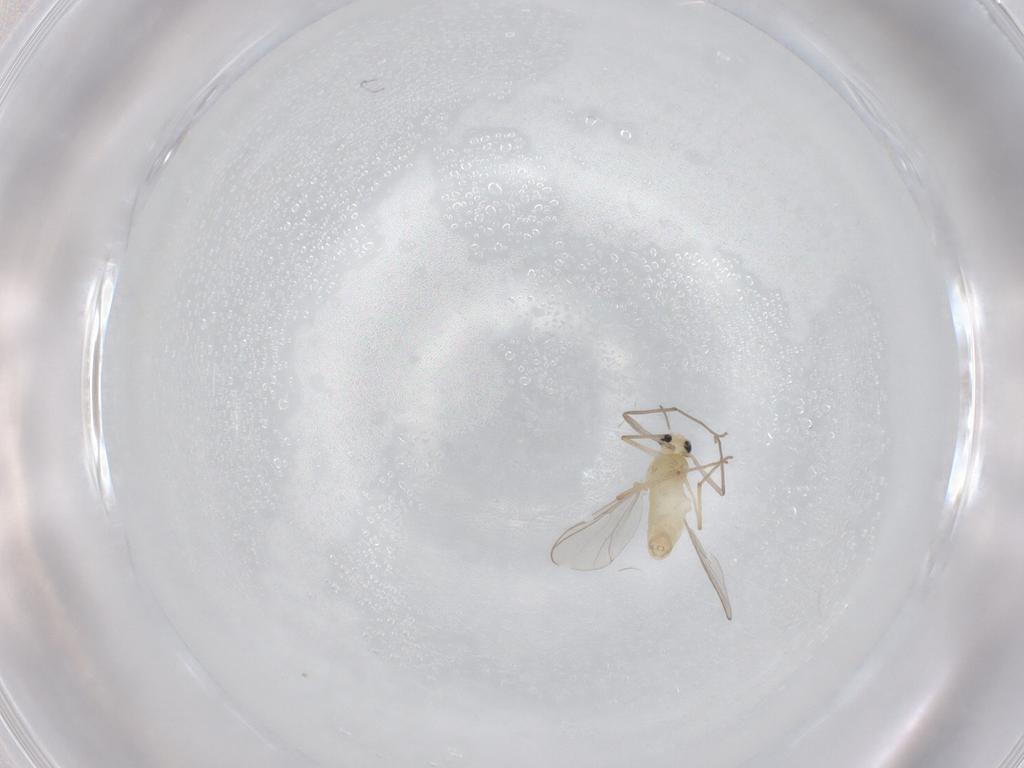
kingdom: Animalia
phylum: Arthropoda
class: Insecta
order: Diptera
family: Chironomidae
